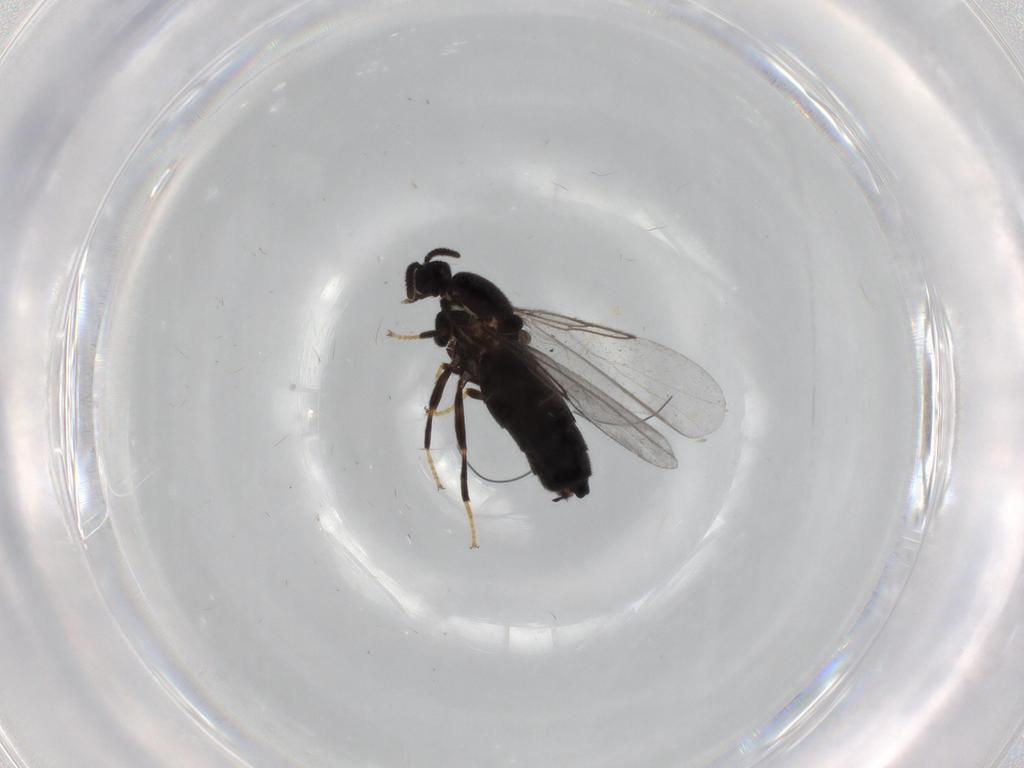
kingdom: Animalia
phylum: Arthropoda
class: Insecta
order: Diptera
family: Scatopsidae
